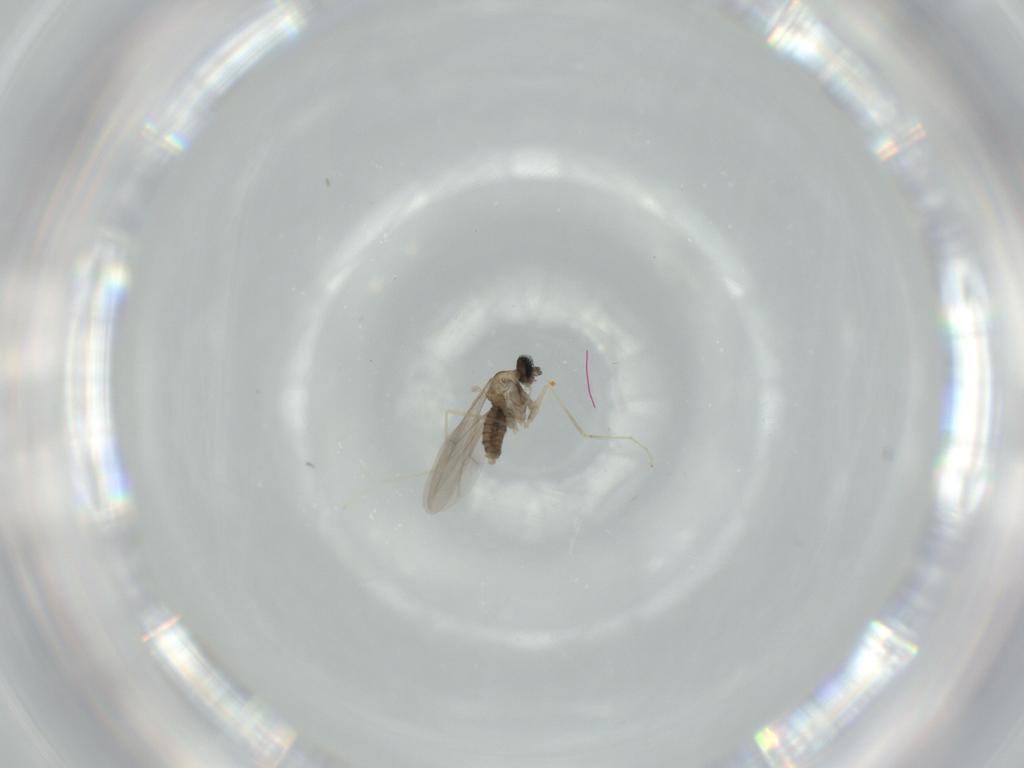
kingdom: Animalia
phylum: Arthropoda
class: Insecta
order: Diptera
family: Cecidomyiidae
